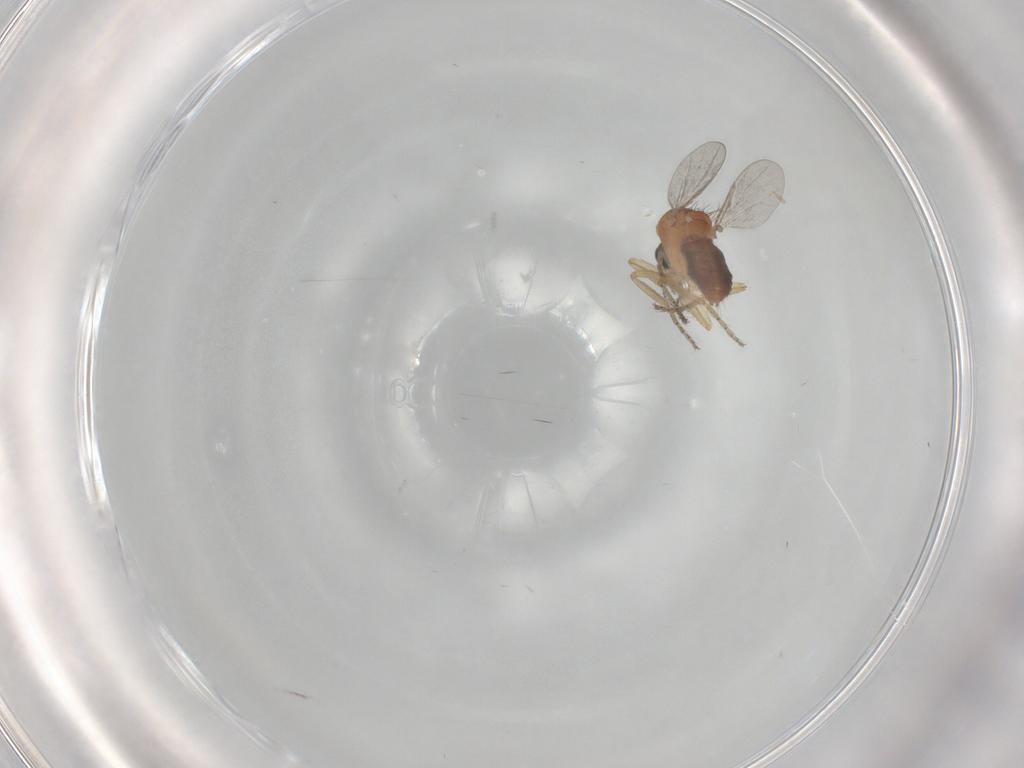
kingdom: Animalia
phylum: Arthropoda
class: Insecta
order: Diptera
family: Ceratopogonidae
